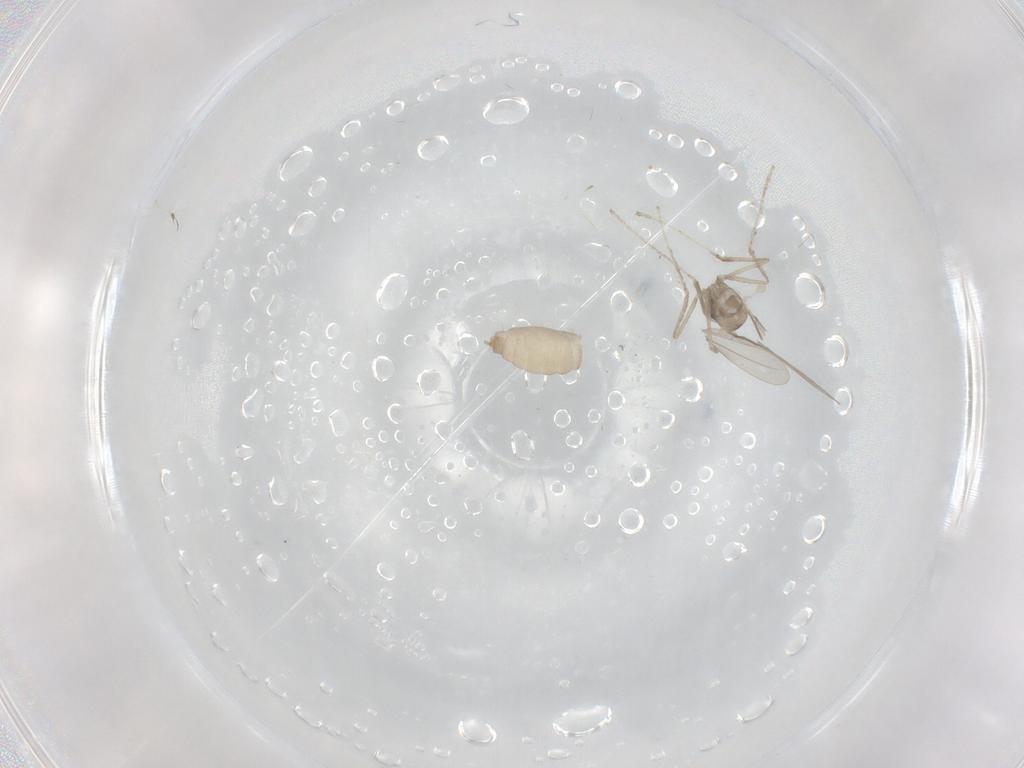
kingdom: Animalia
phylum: Arthropoda
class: Insecta
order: Diptera
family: Cecidomyiidae
